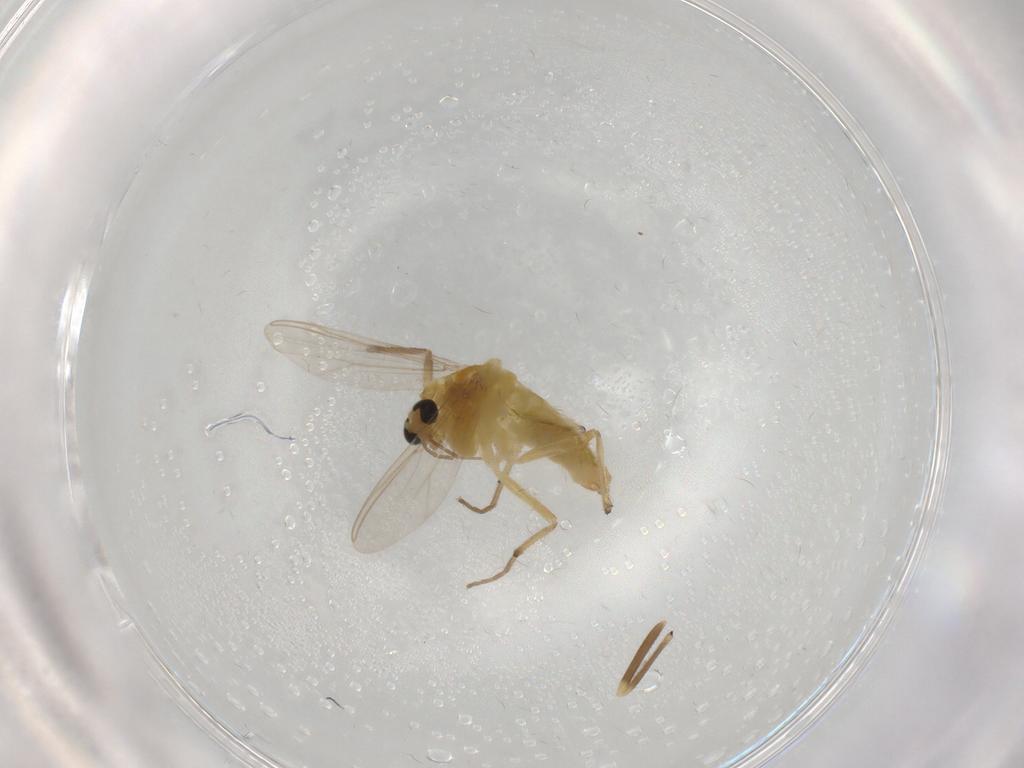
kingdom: Animalia
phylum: Arthropoda
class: Insecta
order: Diptera
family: Chironomidae
